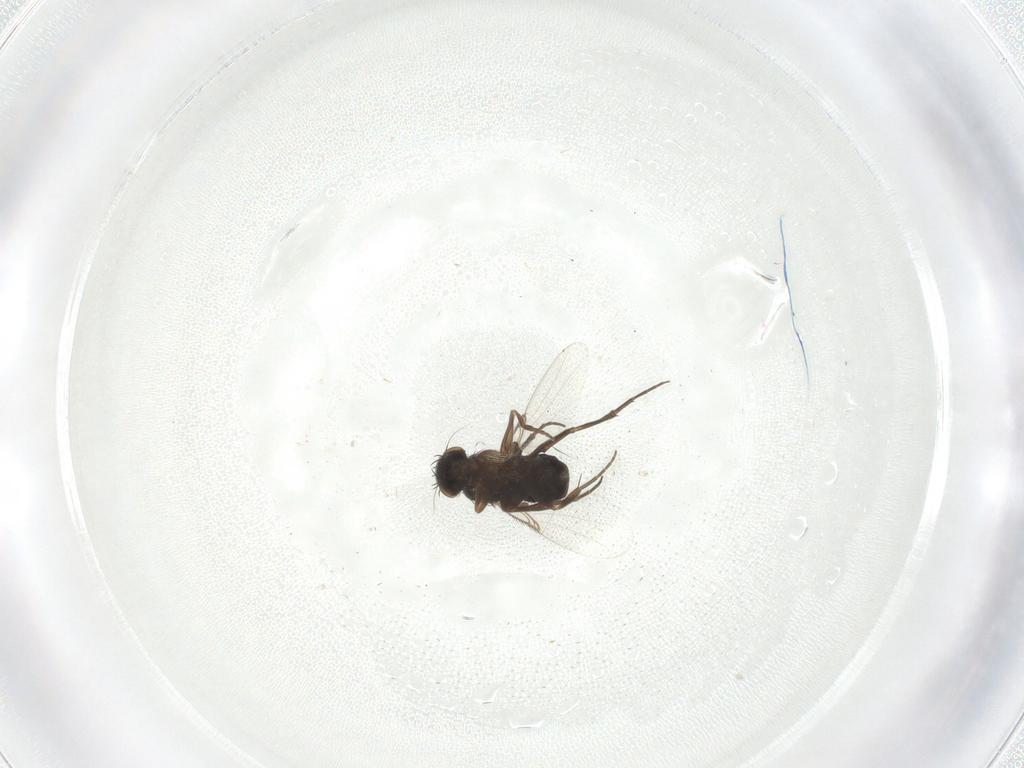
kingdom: Animalia
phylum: Arthropoda
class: Insecta
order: Diptera
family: Phoridae
